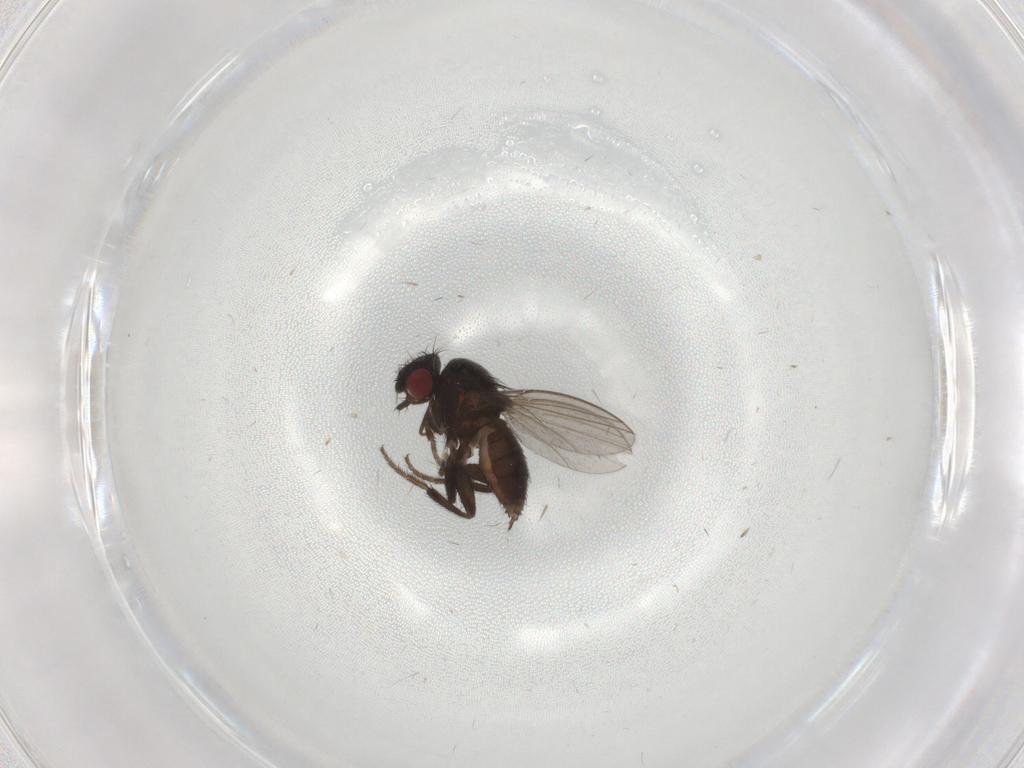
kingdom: Animalia
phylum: Arthropoda
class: Insecta
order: Diptera
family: Milichiidae
